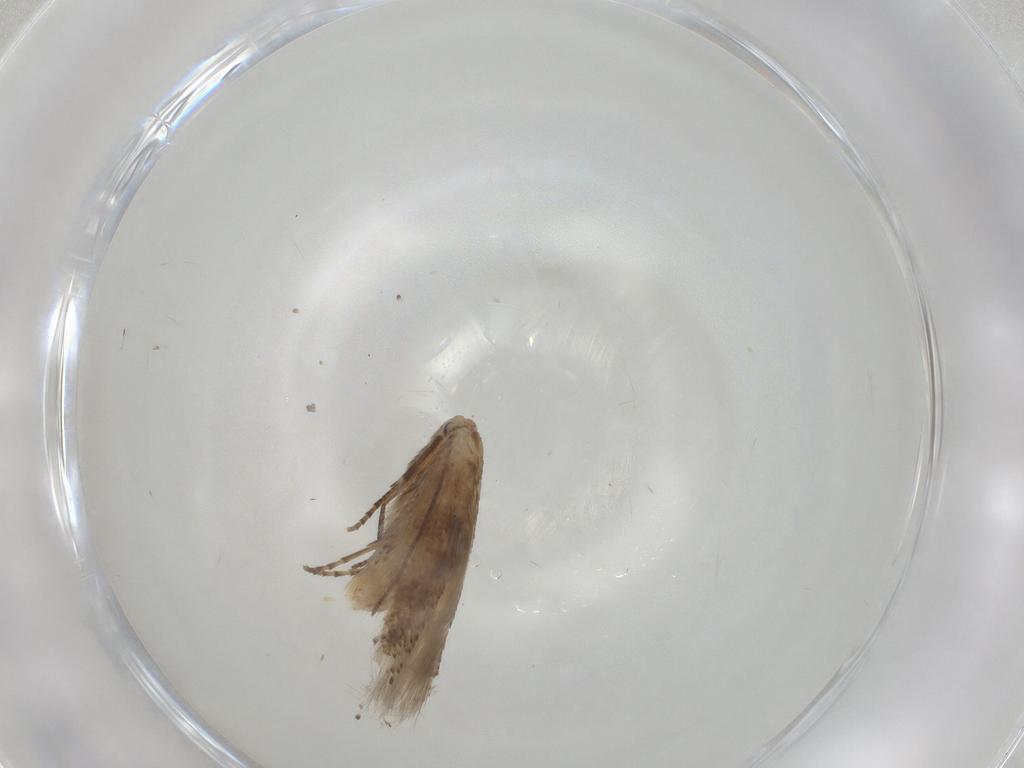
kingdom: Animalia
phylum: Arthropoda
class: Insecta
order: Lepidoptera
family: Bucculatricidae
